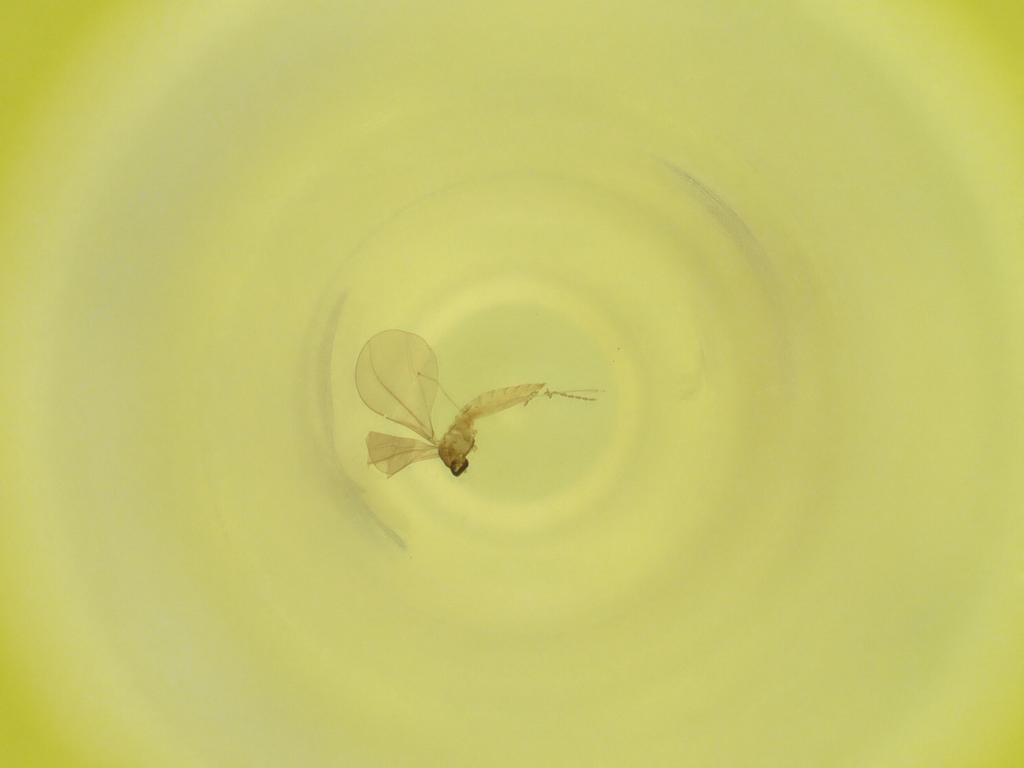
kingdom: Animalia
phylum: Arthropoda
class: Insecta
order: Diptera
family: Cecidomyiidae
